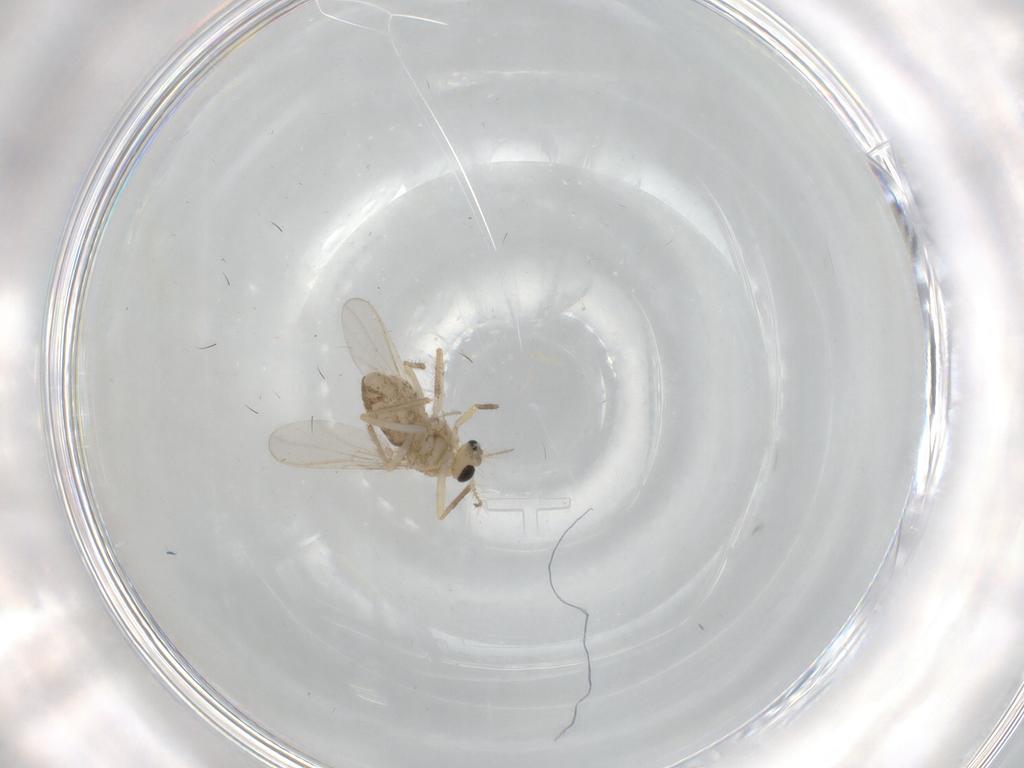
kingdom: Animalia
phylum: Arthropoda
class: Insecta
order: Diptera
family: Chironomidae
